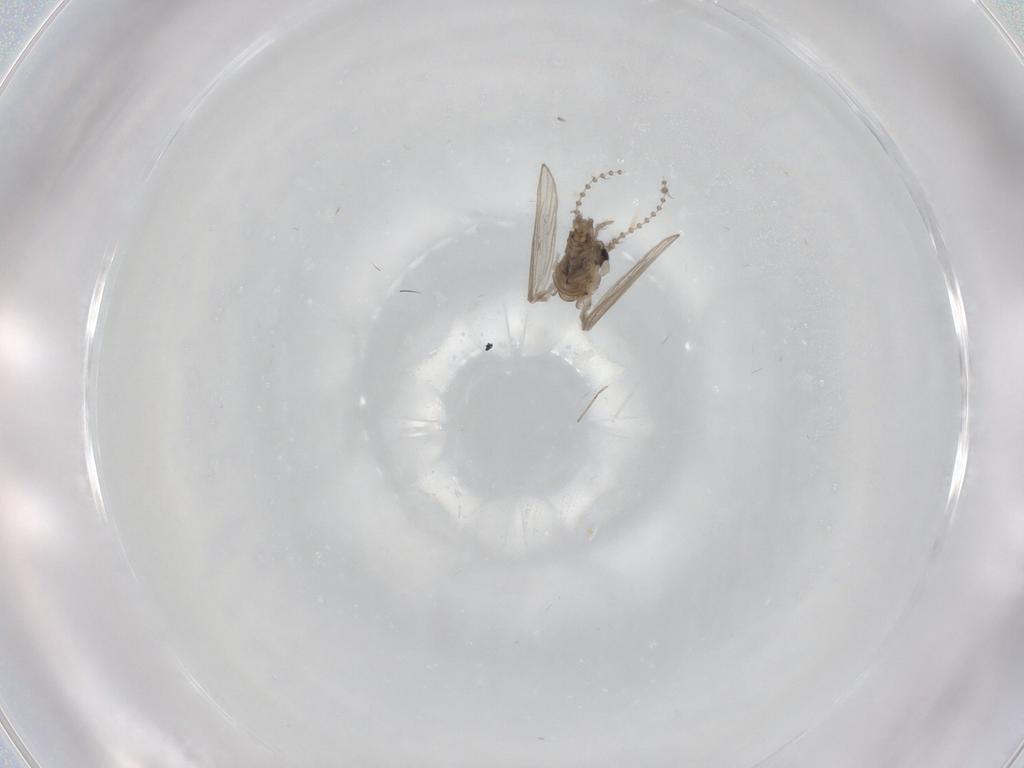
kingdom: Animalia
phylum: Arthropoda
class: Insecta
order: Diptera
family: Psychodidae
